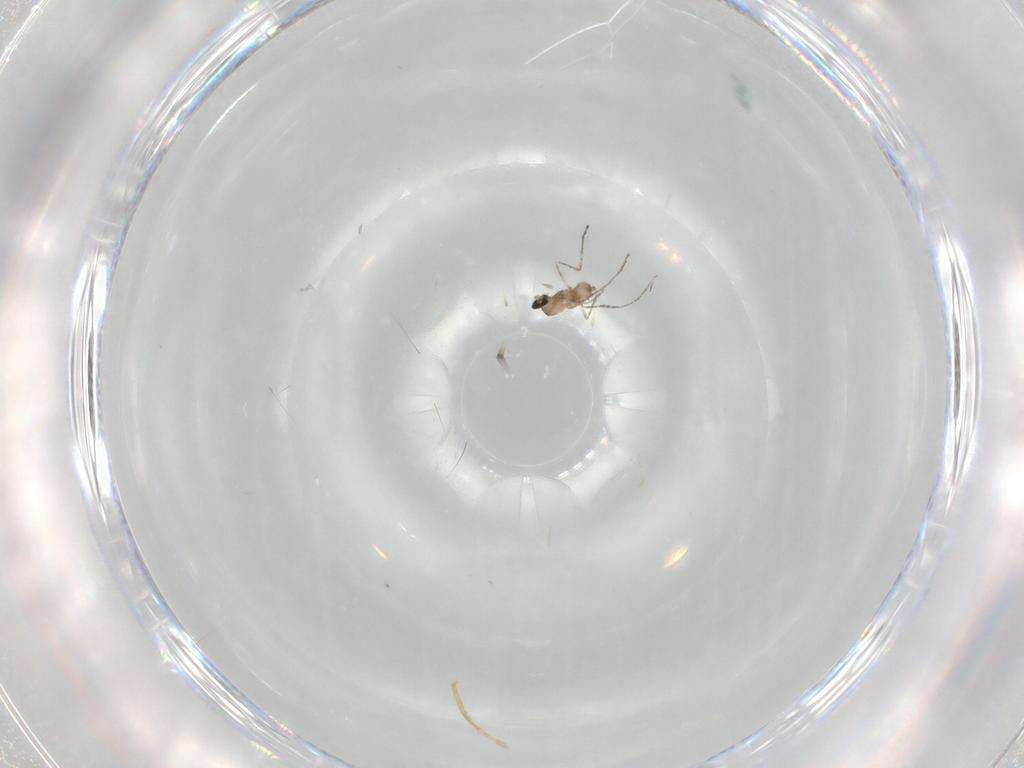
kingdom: Animalia
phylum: Arthropoda
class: Insecta
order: Diptera
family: Cecidomyiidae
